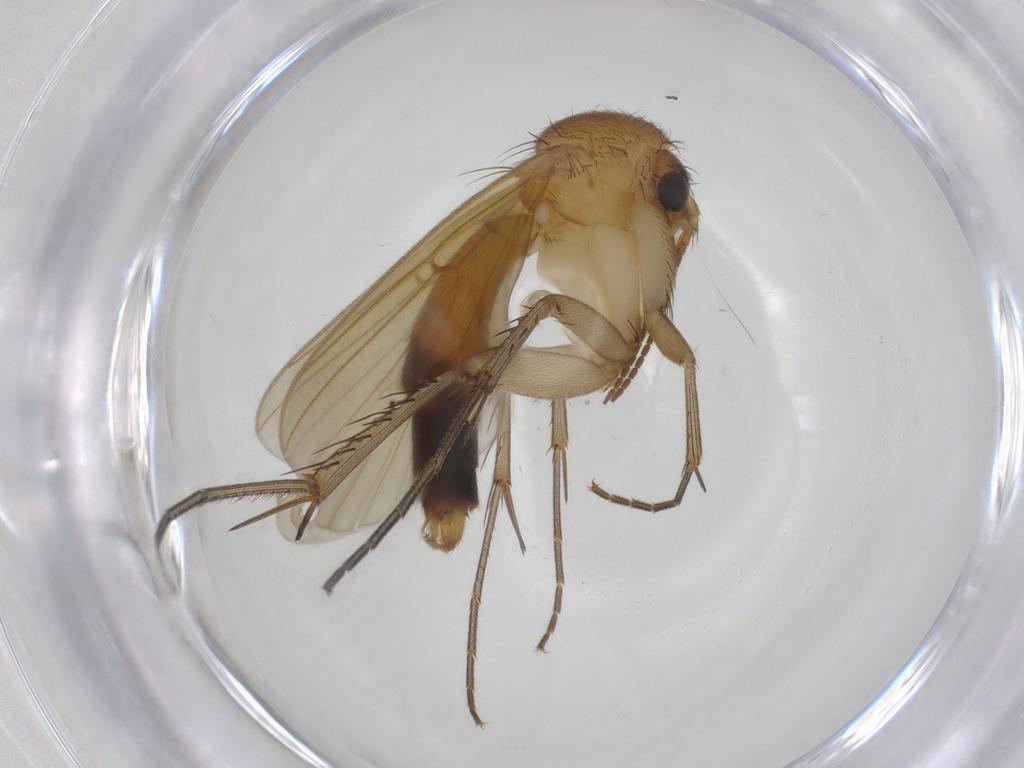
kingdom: Animalia
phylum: Arthropoda
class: Insecta
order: Diptera
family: Mycetophilidae
